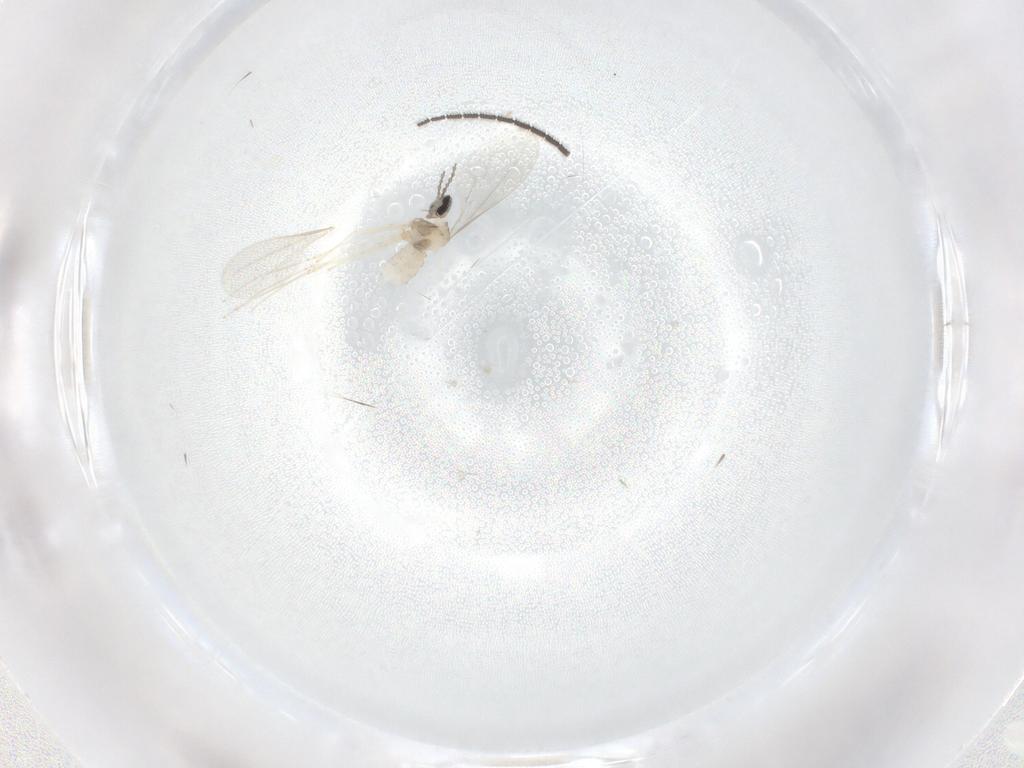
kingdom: Animalia
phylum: Arthropoda
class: Insecta
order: Diptera
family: Cecidomyiidae
